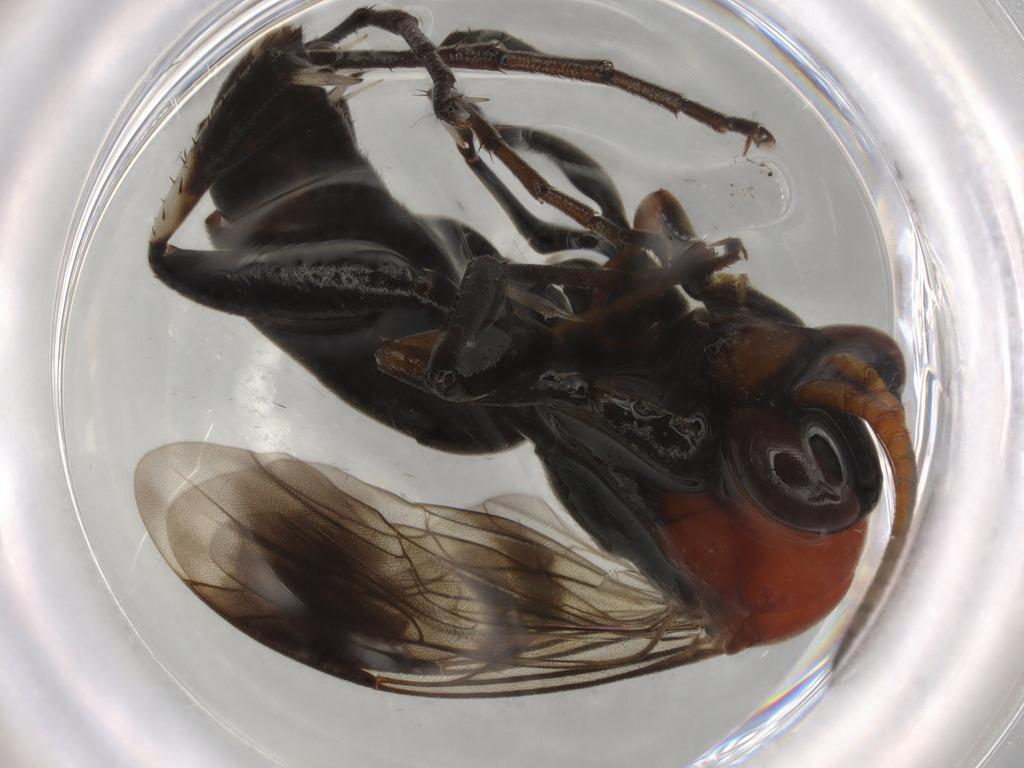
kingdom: Animalia
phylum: Arthropoda
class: Insecta
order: Hymenoptera
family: Pompilidae
